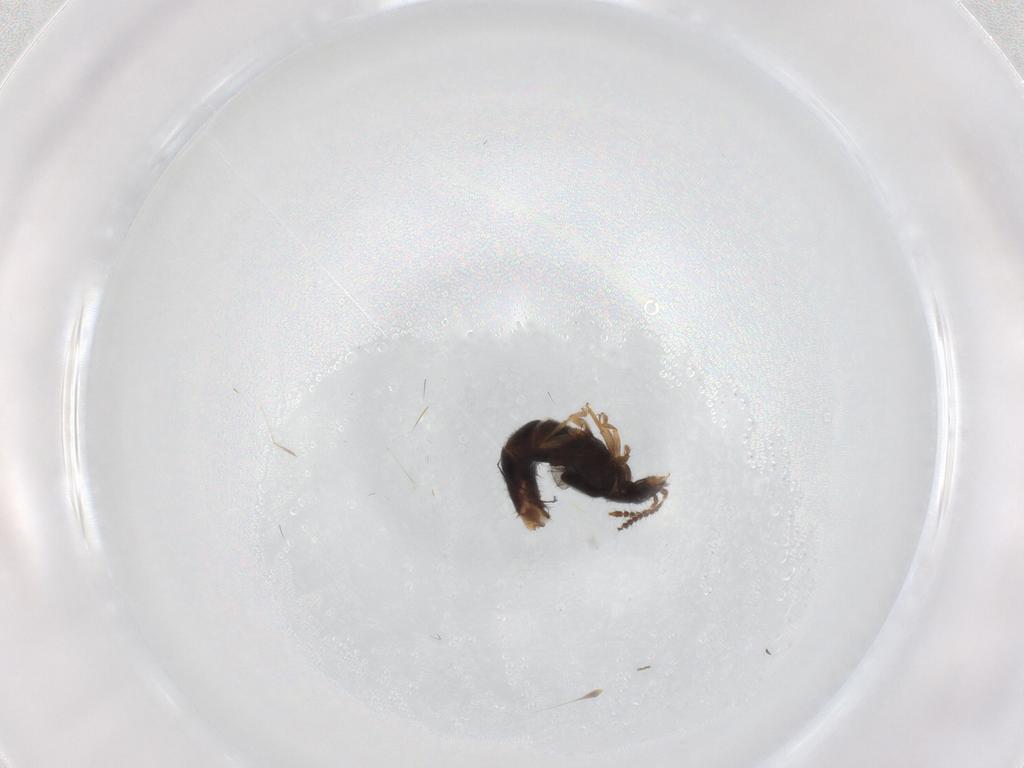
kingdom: Animalia
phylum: Arthropoda
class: Insecta
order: Coleoptera
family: Staphylinidae
